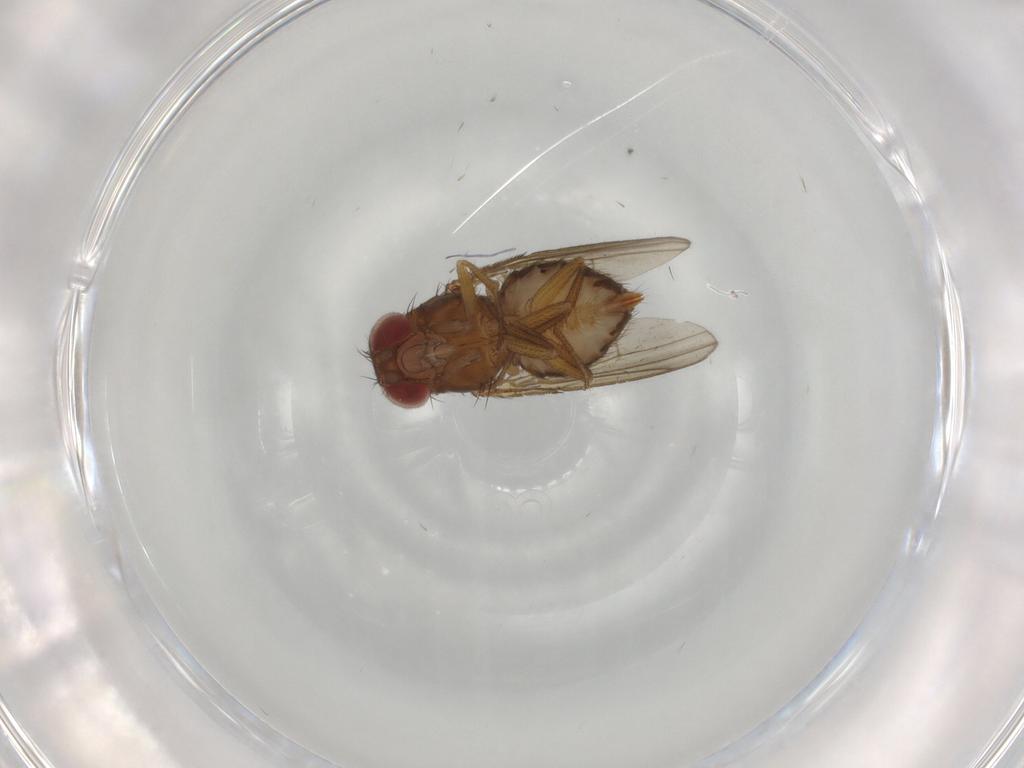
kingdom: Animalia
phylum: Arthropoda
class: Insecta
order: Diptera
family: Drosophilidae
